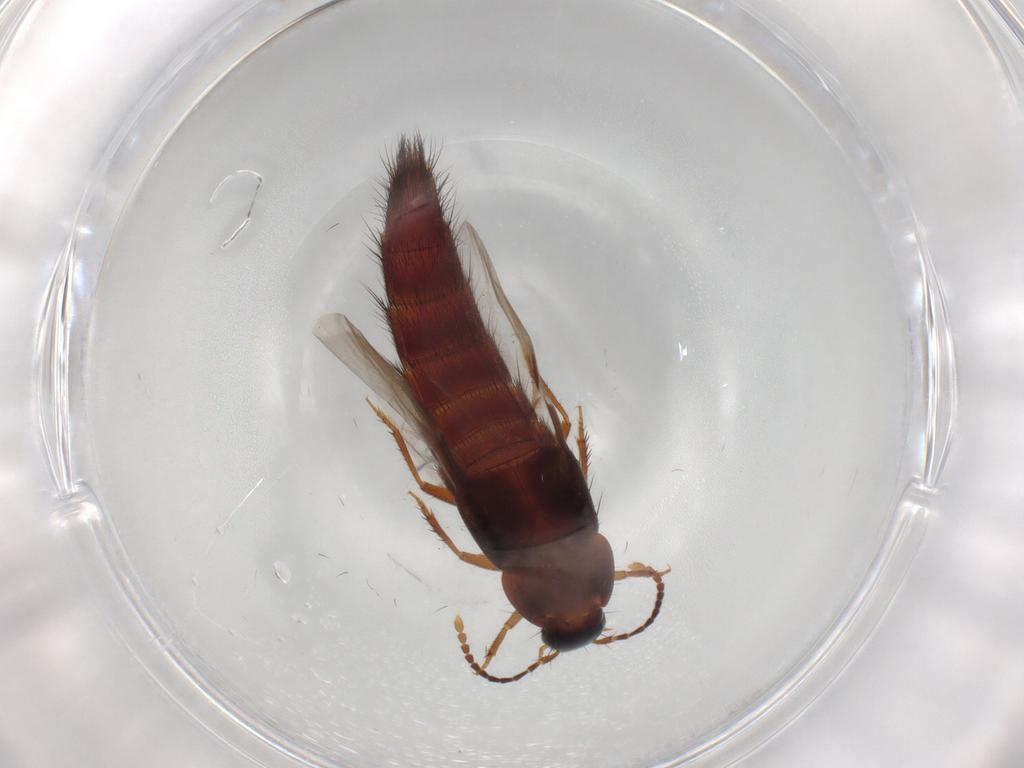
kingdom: Animalia
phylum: Arthropoda
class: Insecta
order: Coleoptera
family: Staphylinidae
